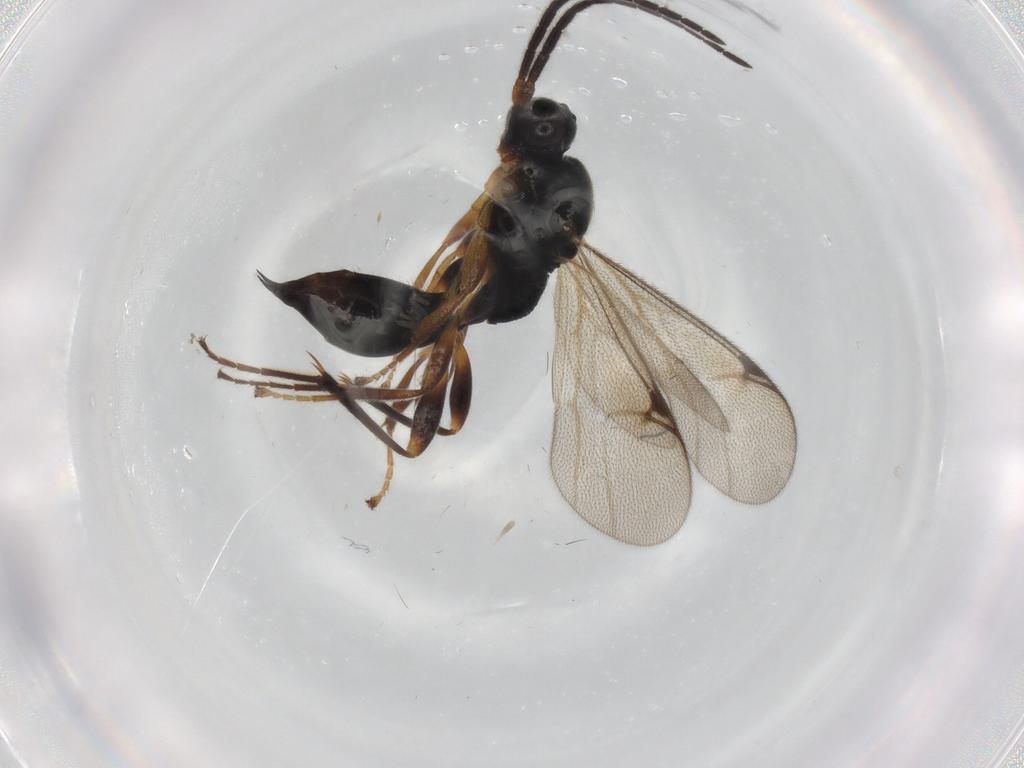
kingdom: Animalia
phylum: Arthropoda
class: Insecta
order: Hymenoptera
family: Proctotrupidae
